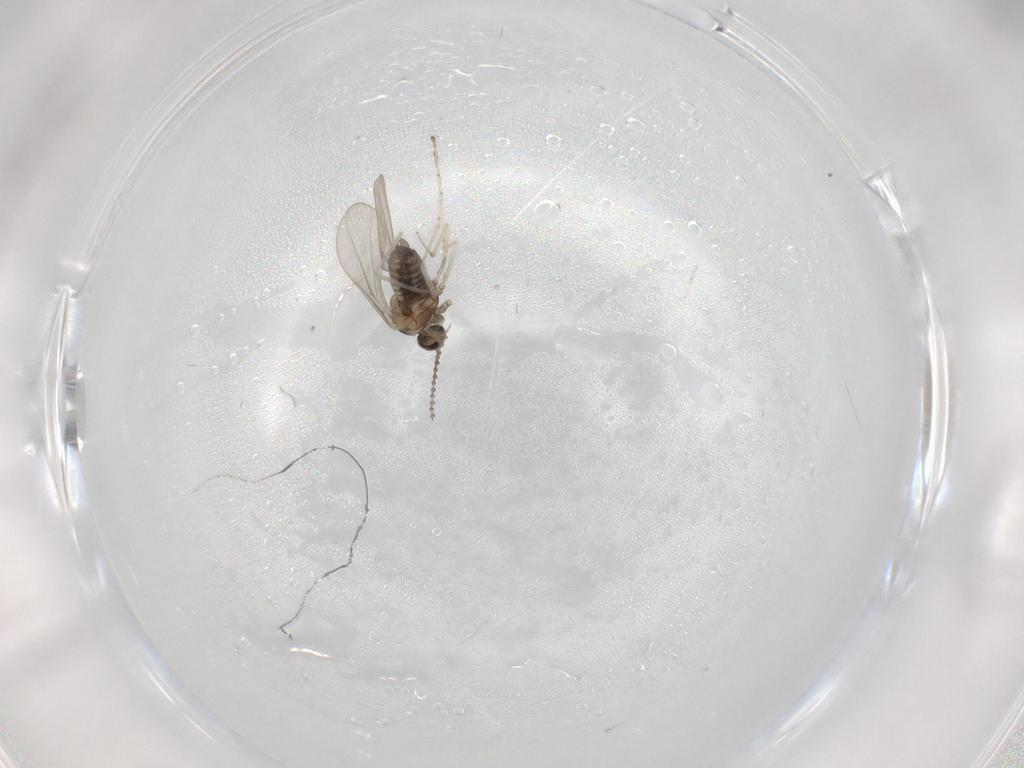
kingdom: Animalia
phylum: Arthropoda
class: Insecta
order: Diptera
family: Cecidomyiidae
